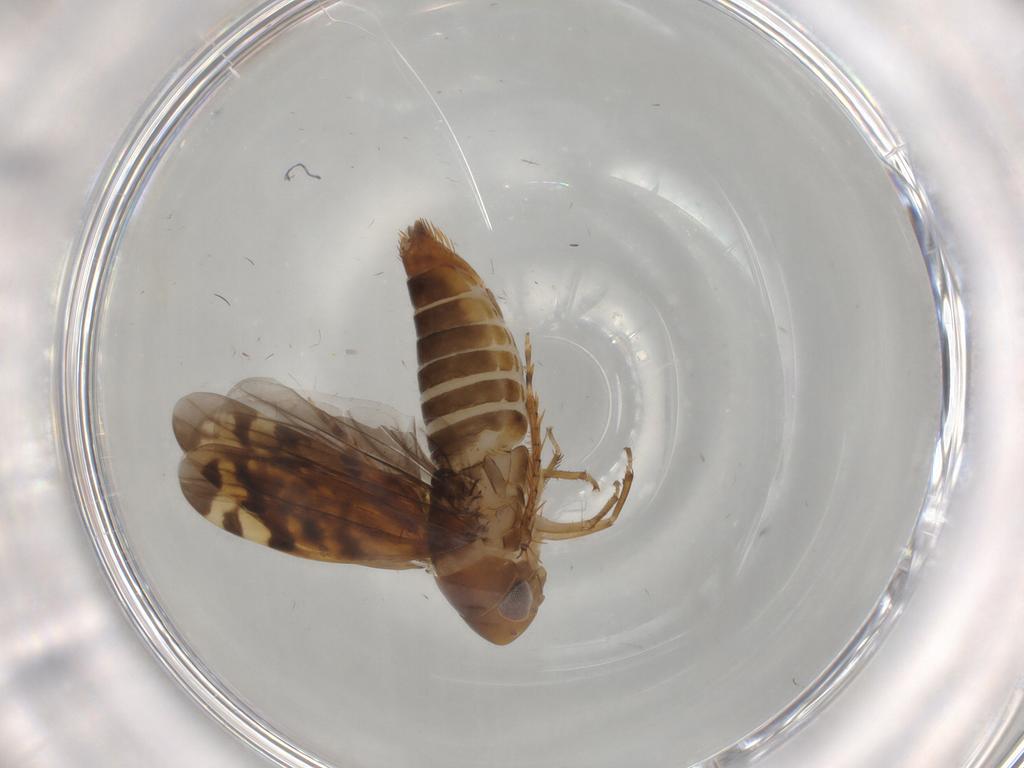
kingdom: Animalia
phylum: Arthropoda
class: Insecta
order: Hemiptera
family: Cicadellidae
